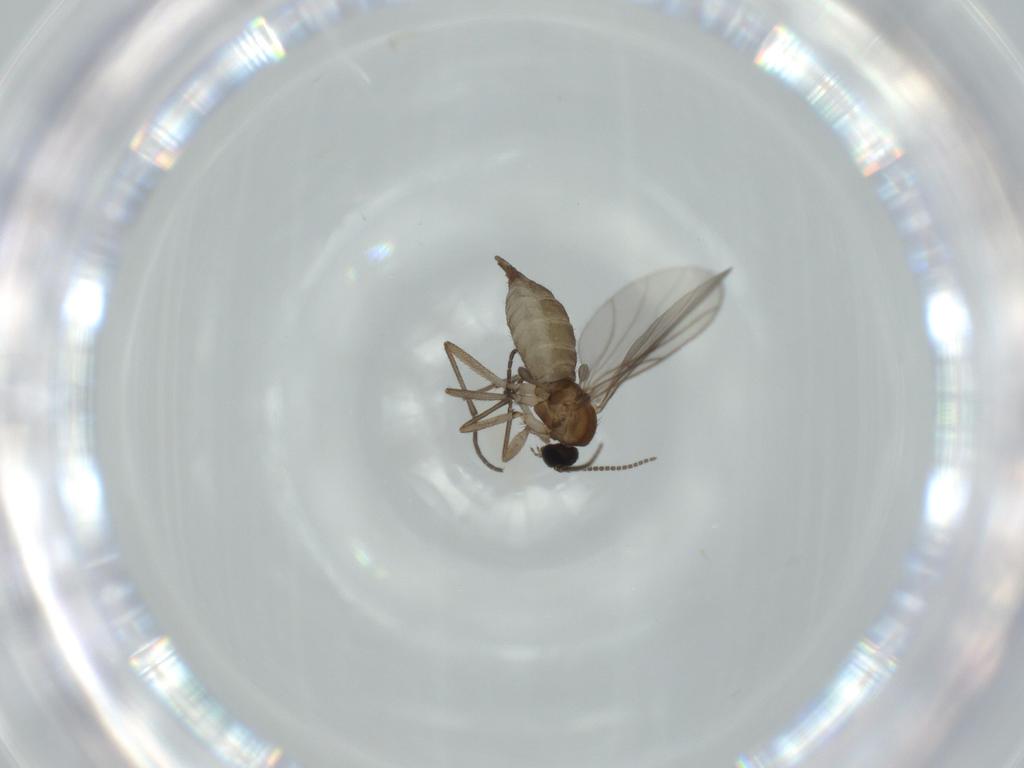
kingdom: Animalia
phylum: Arthropoda
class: Insecta
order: Diptera
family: Sciaridae
